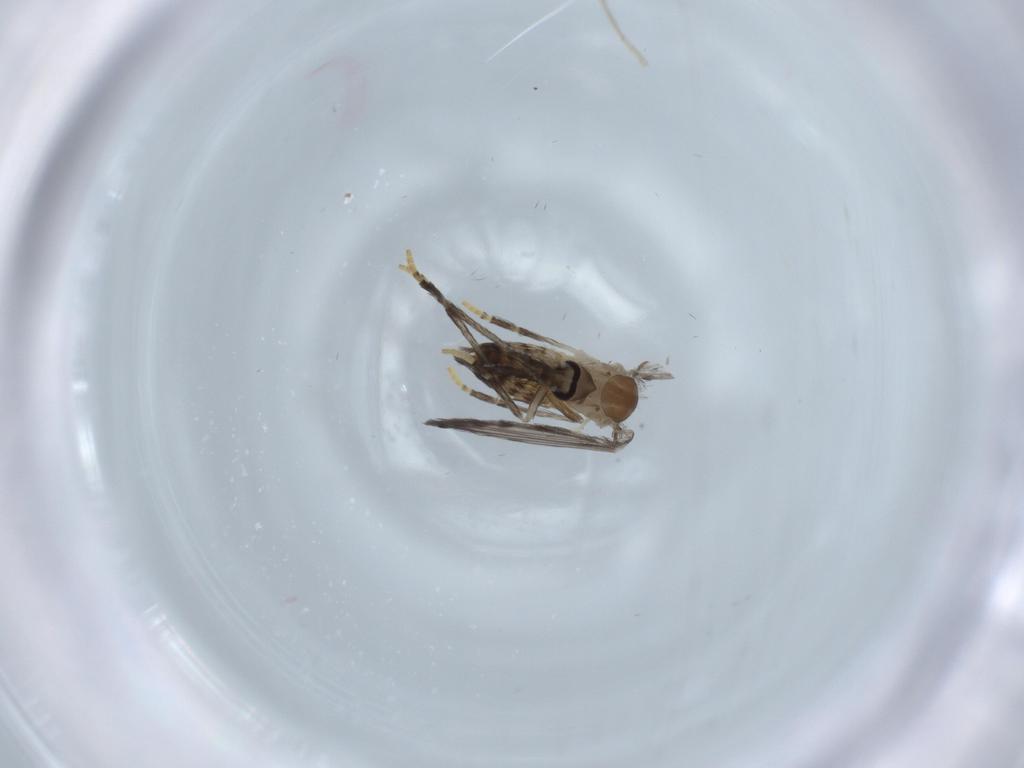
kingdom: Animalia
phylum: Arthropoda
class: Insecta
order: Diptera
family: Psychodidae
